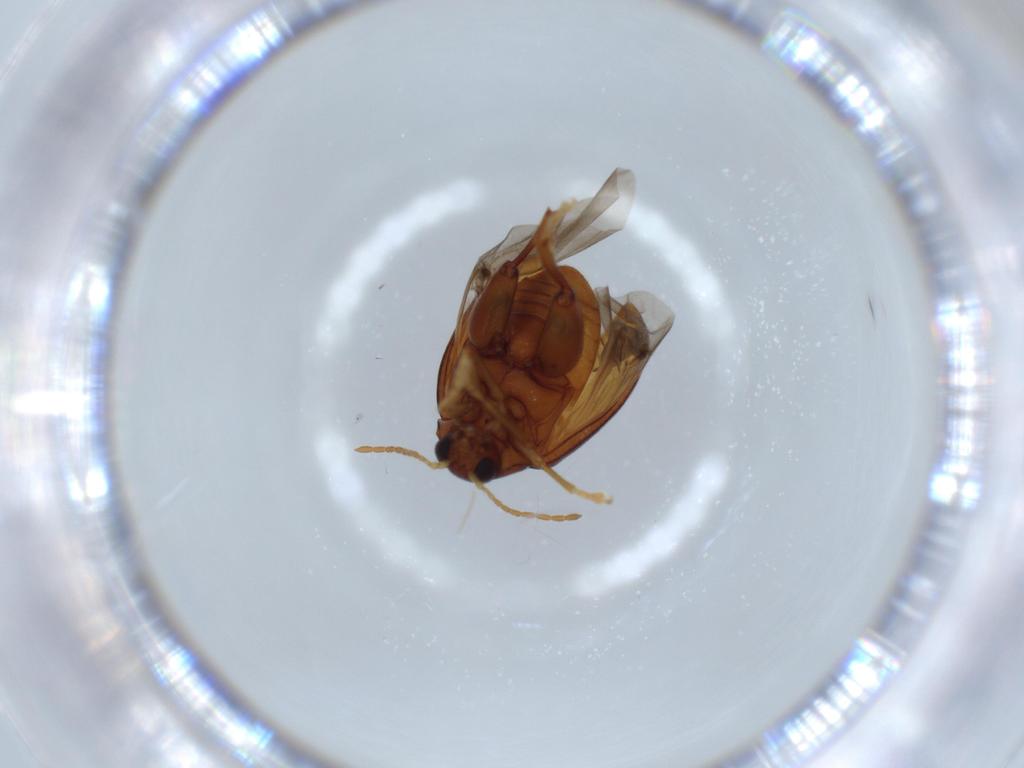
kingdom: Animalia
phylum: Arthropoda
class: Insecta
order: Coleoptera
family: Chrysomelidae
